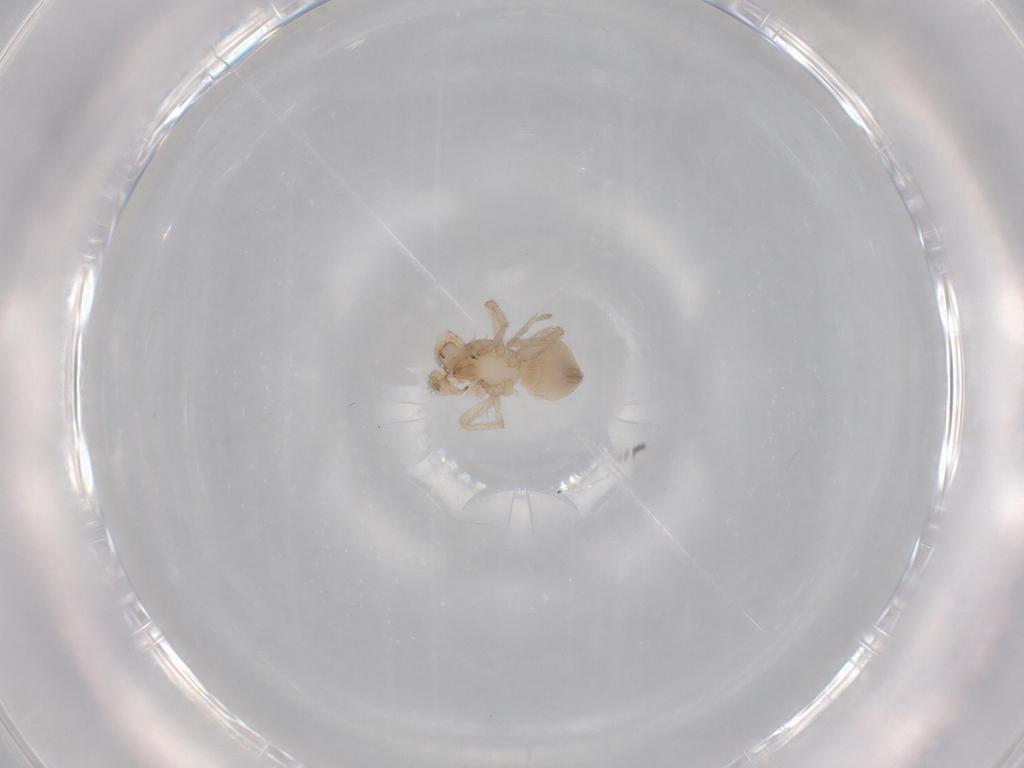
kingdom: Animalia
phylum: Arthropoda
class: Arachnida
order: Araneae
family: Oonopidae
